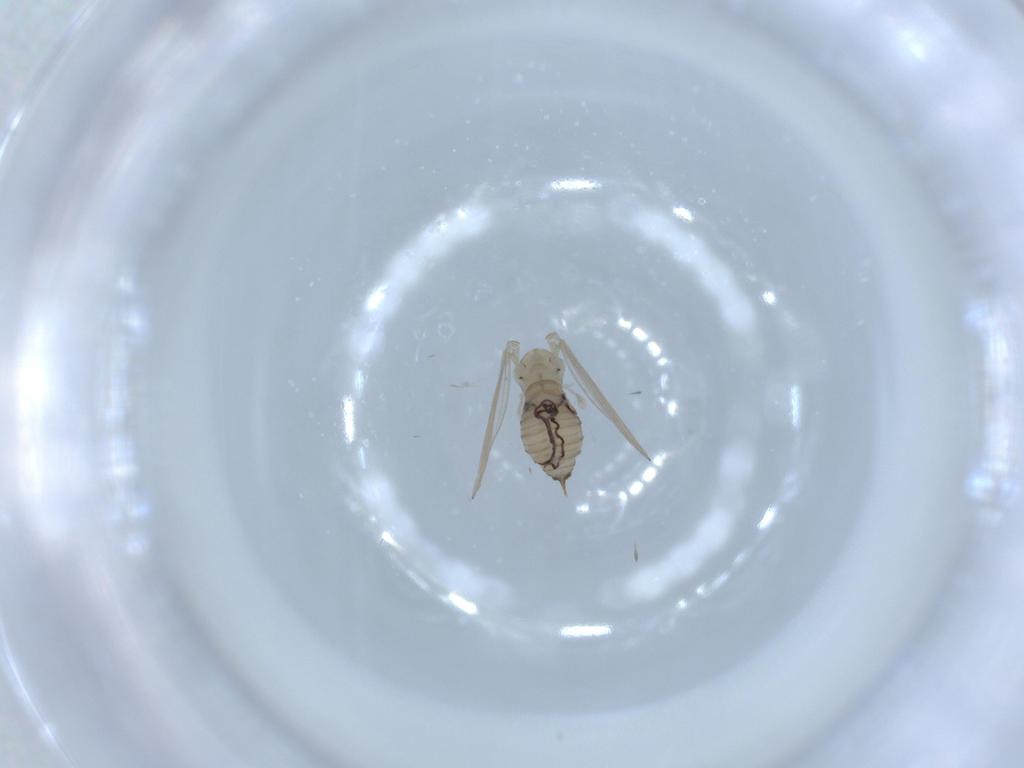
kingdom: Animalia
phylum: Arthropoda
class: Insecta
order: Diptera
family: Psychodidae
